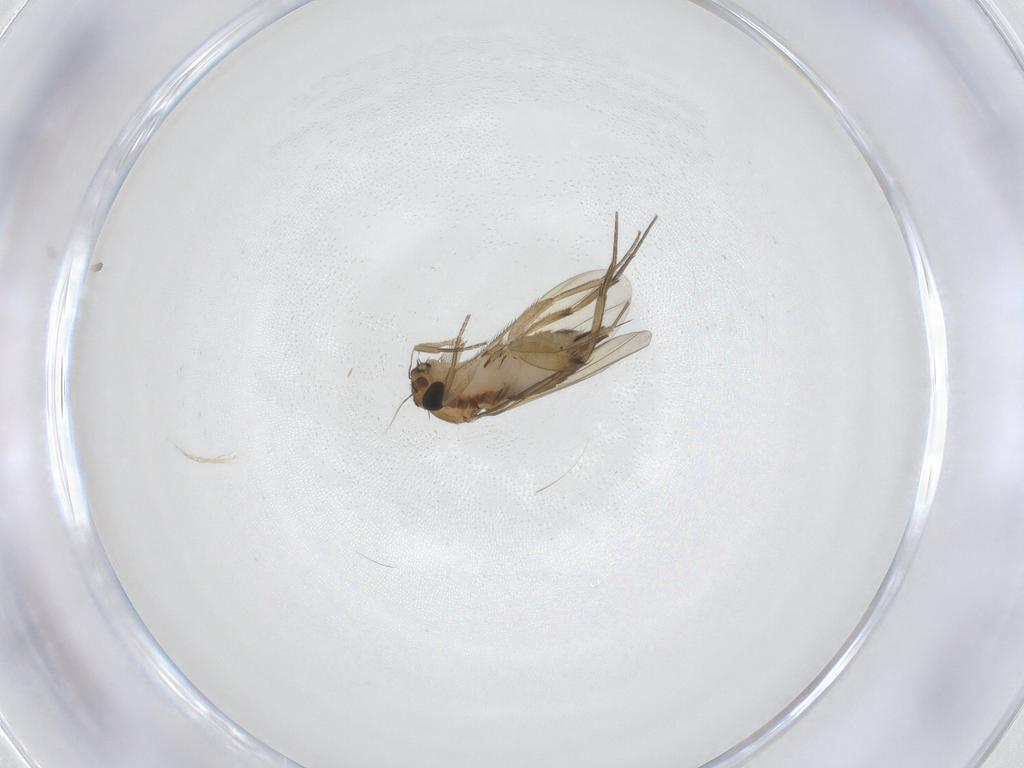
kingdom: Animalia
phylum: Arthropoda
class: Insecta
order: Diptera
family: Phoridae
